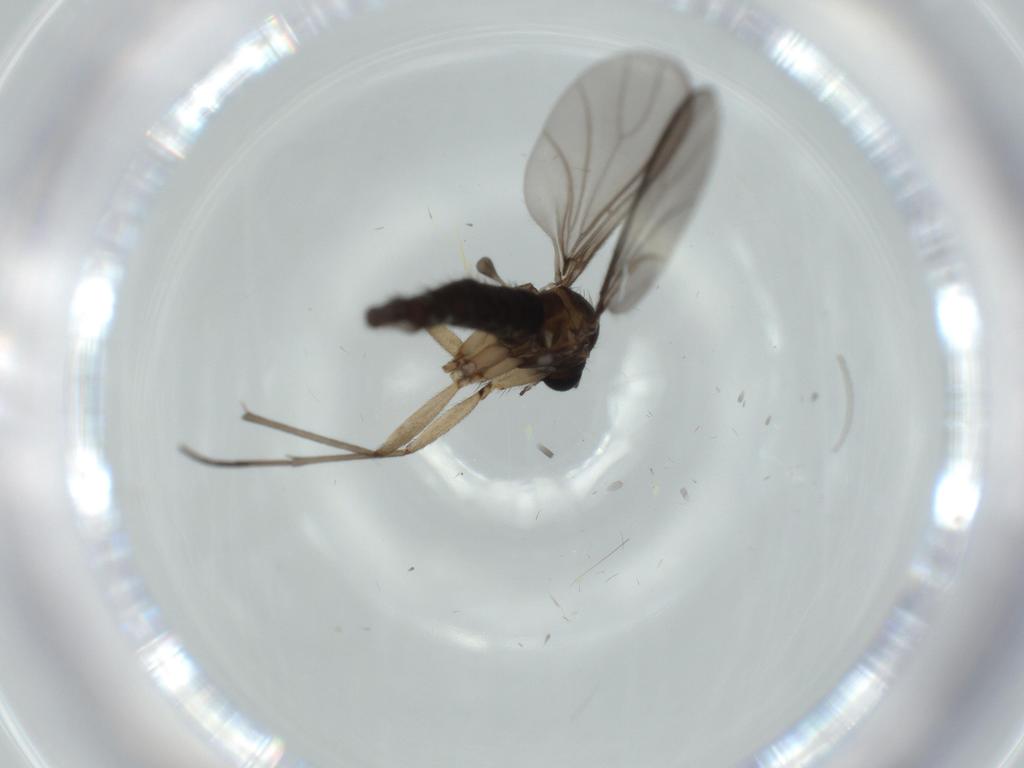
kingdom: Animalia
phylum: Arthropoda
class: Insecta
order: Diptera
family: Sciaridae
